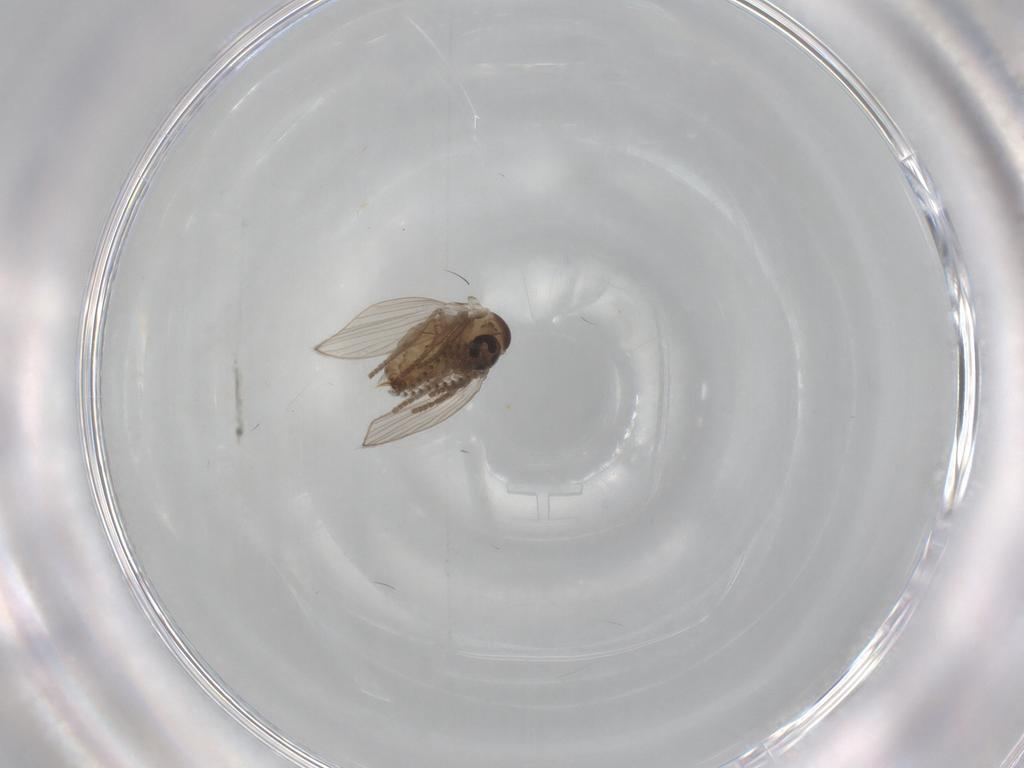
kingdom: Animalia
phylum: Arthropoda
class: Insecta
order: Diptera
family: Psychodidae
